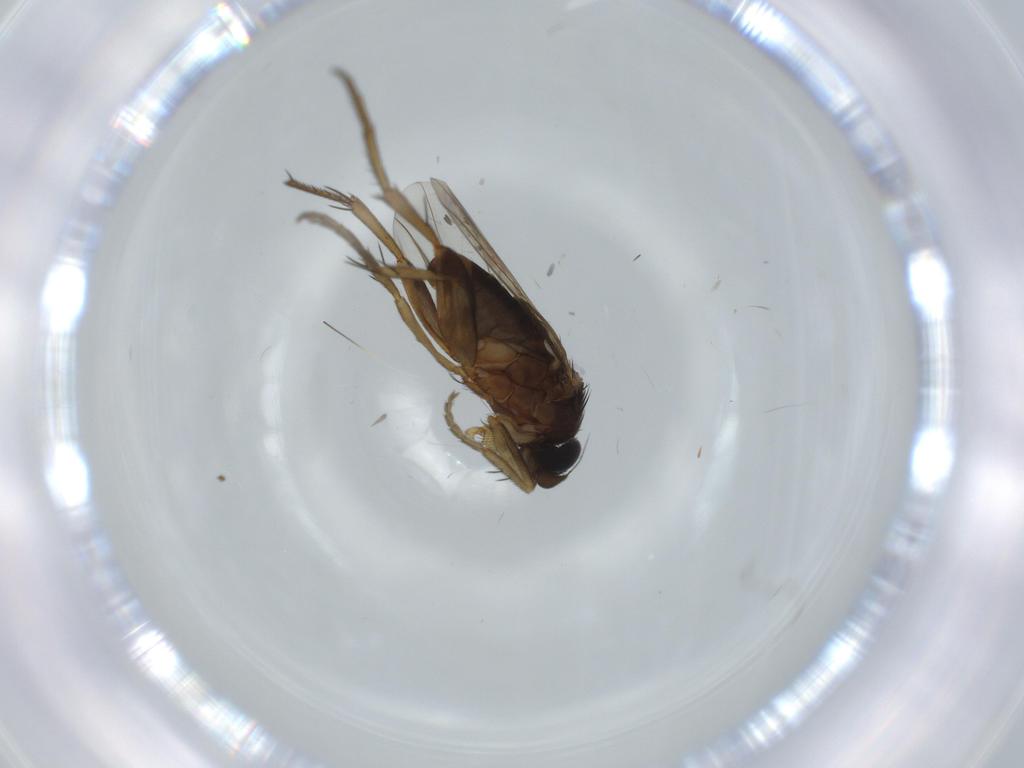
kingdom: Animalia
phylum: Arthropoda
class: Insecta
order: Diptera
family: Phoridae
